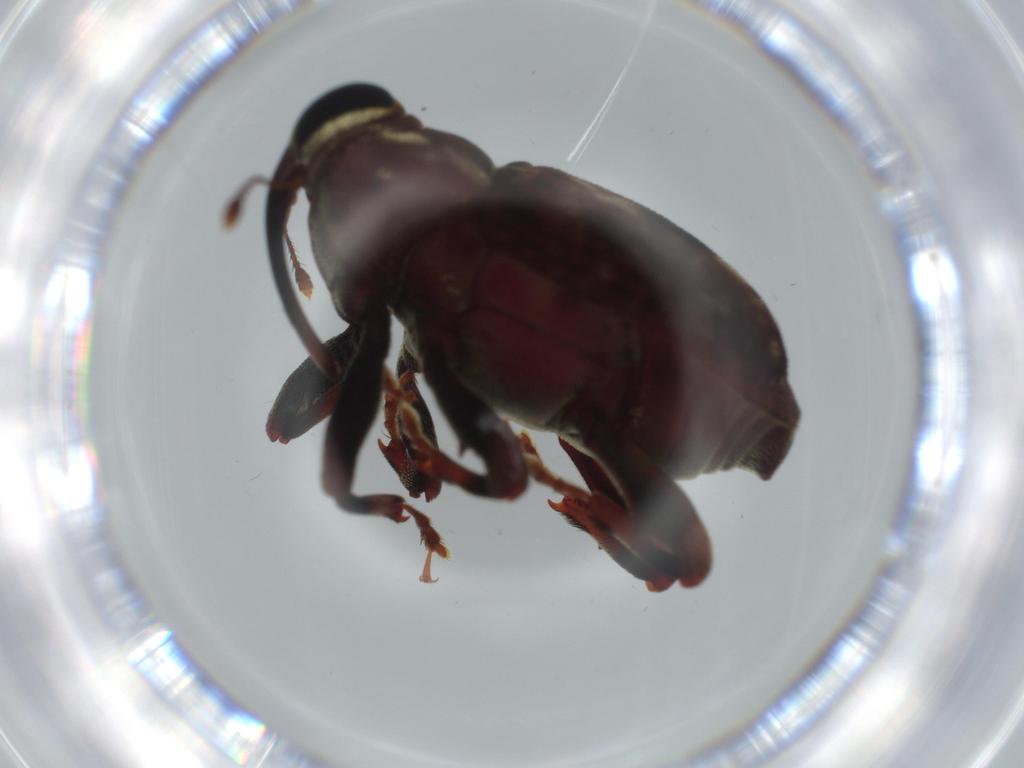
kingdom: Animalia
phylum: Arthropoda
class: Insecta
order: Coleoptera
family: Curculionidae
